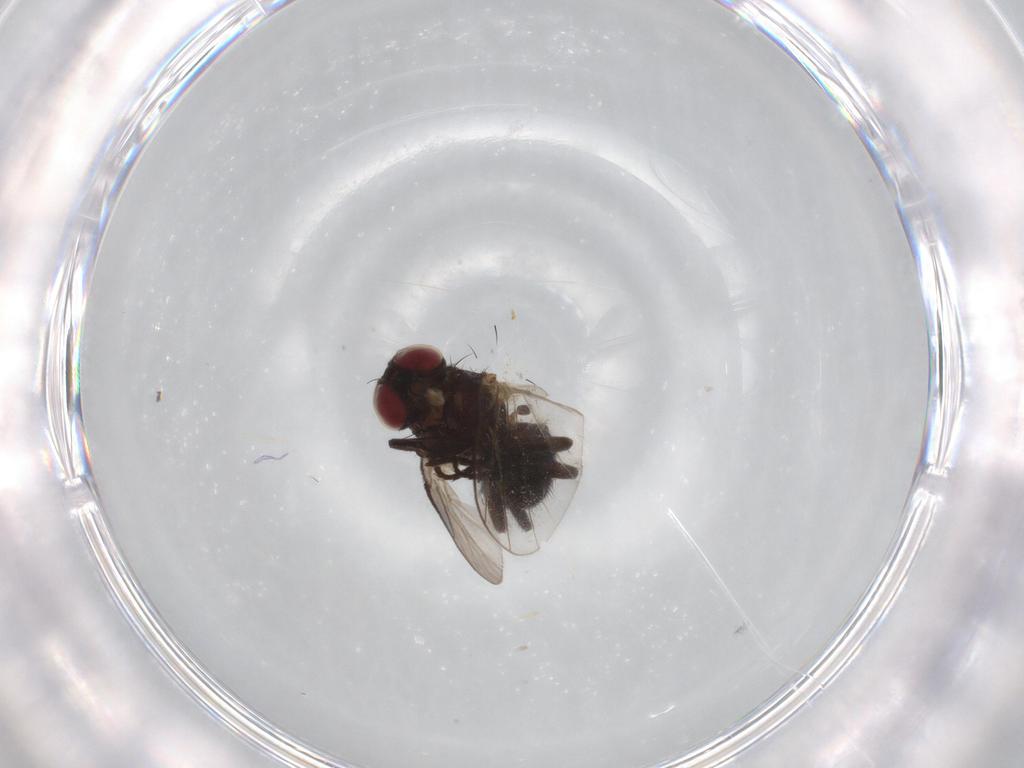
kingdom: Animalia
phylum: Arthropoda
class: Insecta
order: Diptera
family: Scatopsidae
